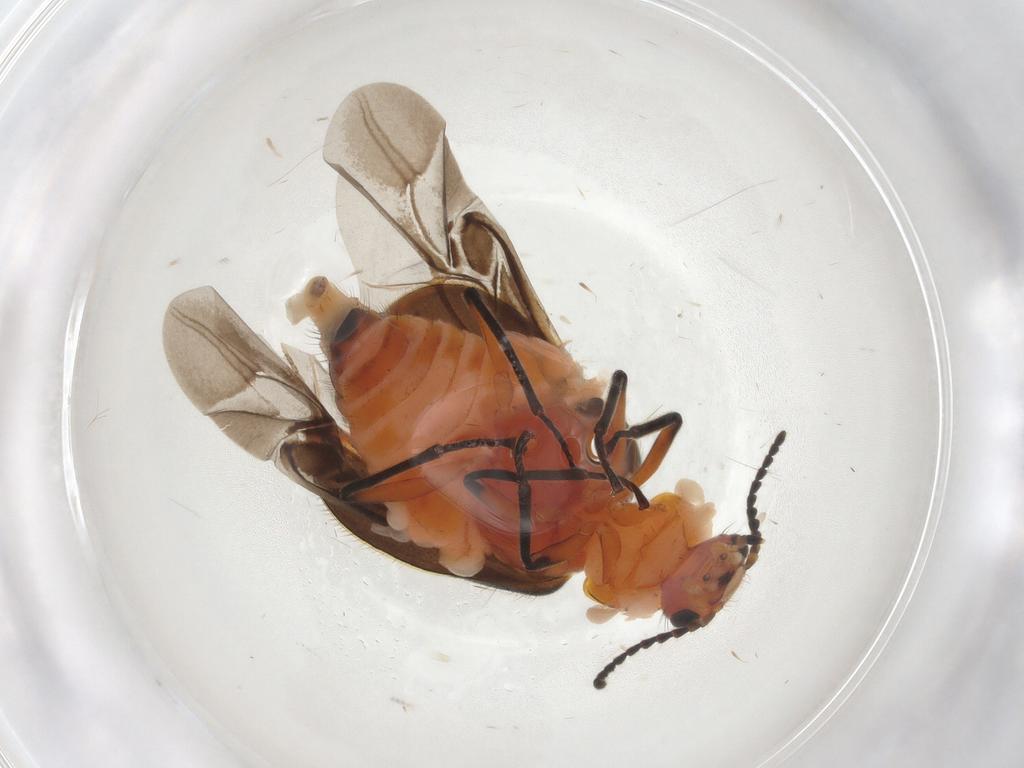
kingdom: Animalia
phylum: Arthropoda
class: Insecta
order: Coleoptera
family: Melyridae
